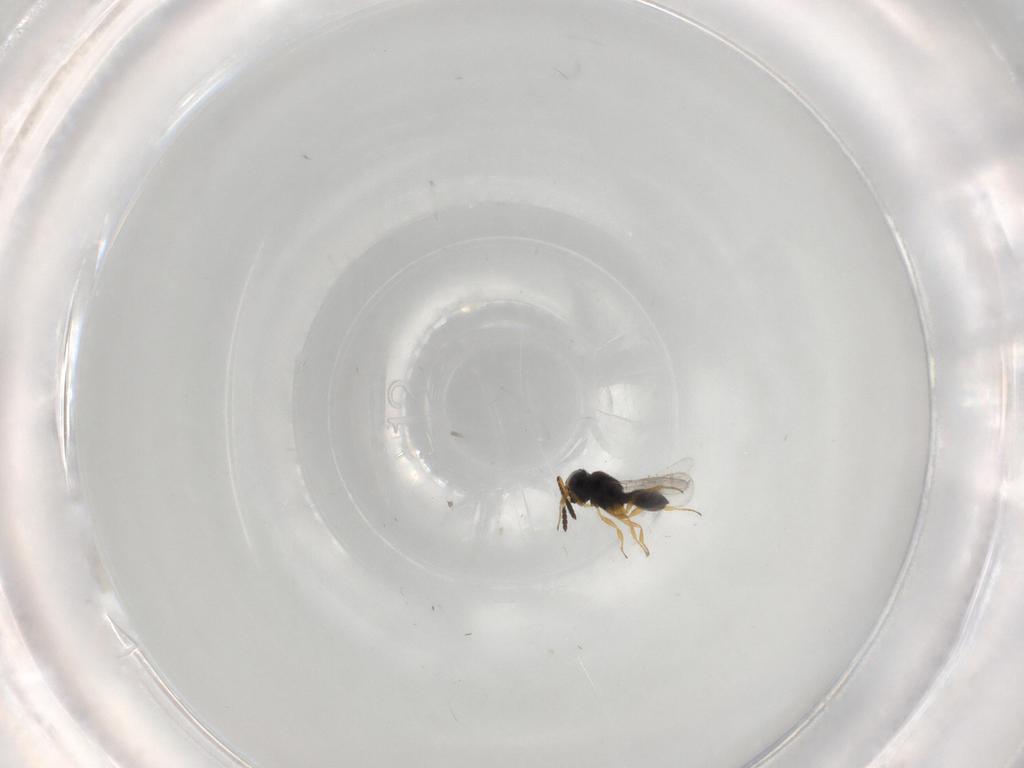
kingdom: Animalia
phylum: Arthropoda
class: Insecta
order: Hymenoptera
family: Scelionidae
